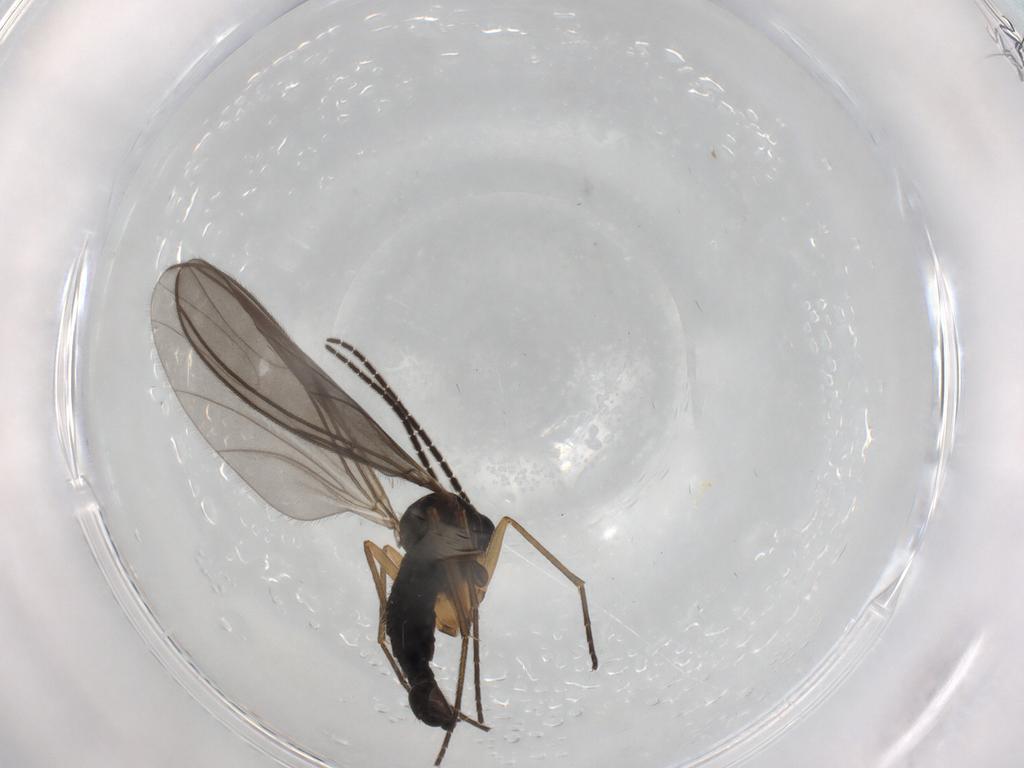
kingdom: Animalia
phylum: Arthropoda
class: Insecta
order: Diptera
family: Sciaridae
